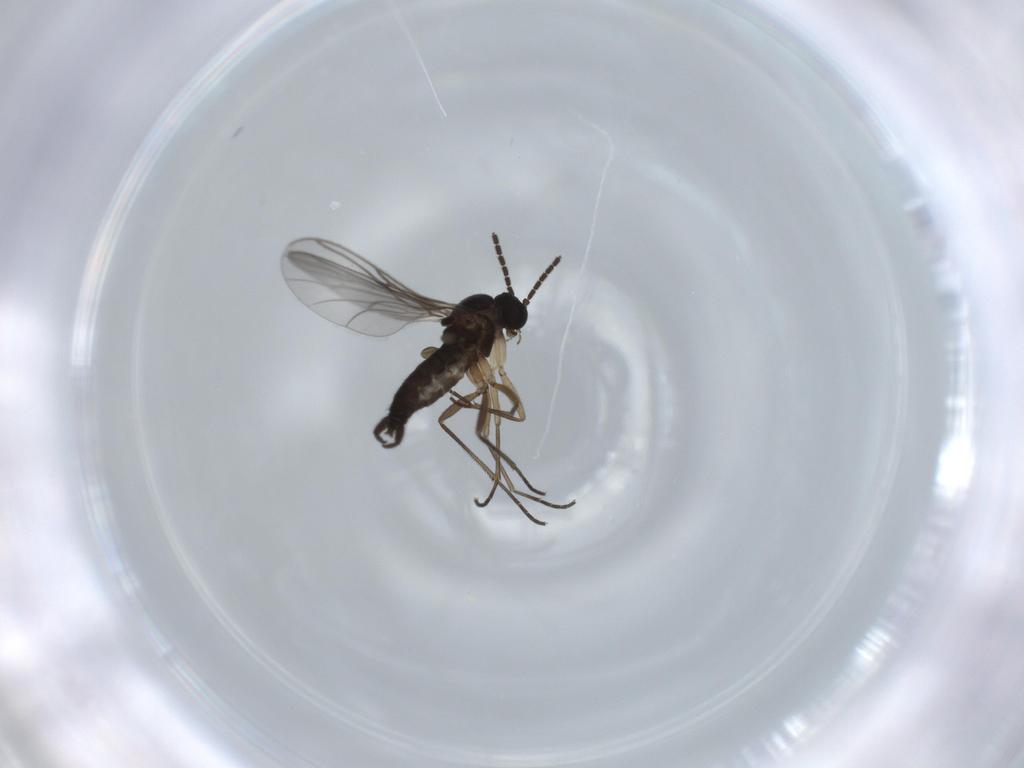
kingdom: Animalia
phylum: Arthropoda
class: Insecta
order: Diptera
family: Sciaridae
